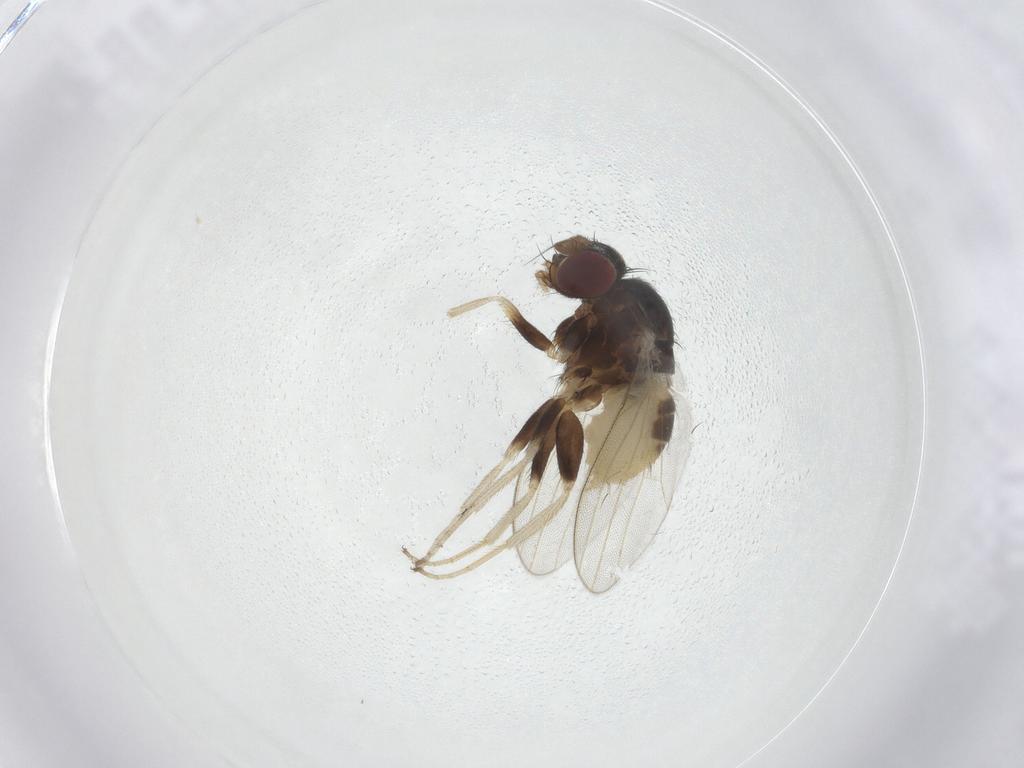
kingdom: Animalia
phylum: Arthropoda
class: Insecta
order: Diptera
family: Milichiidae
